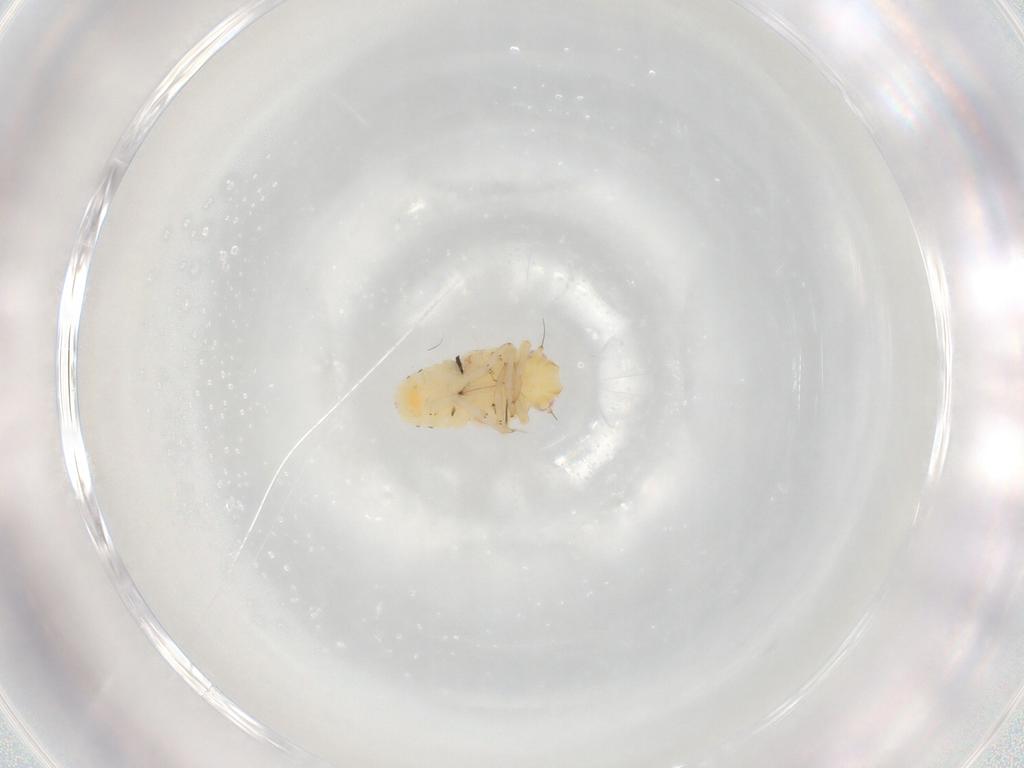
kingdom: Animalia
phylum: Arthropoda
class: Insecta
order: Hemiptera
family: Tropiduchidae
